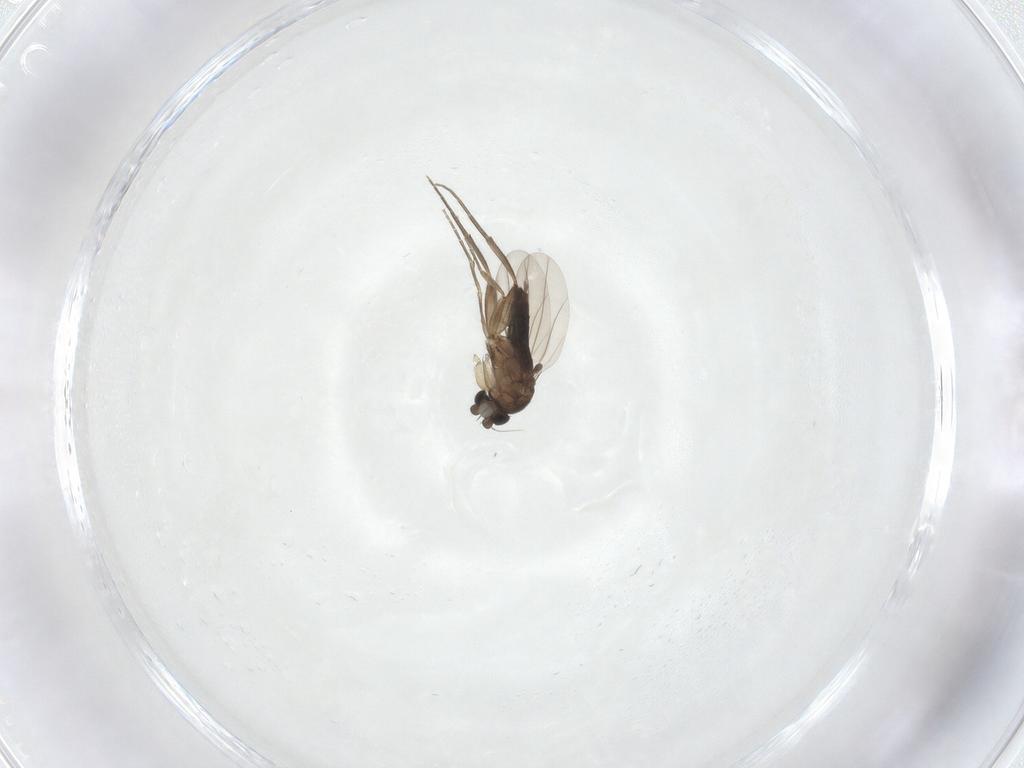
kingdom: Animalia
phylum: Arthropoda
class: Insecta
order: Diptera
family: Phoridae
